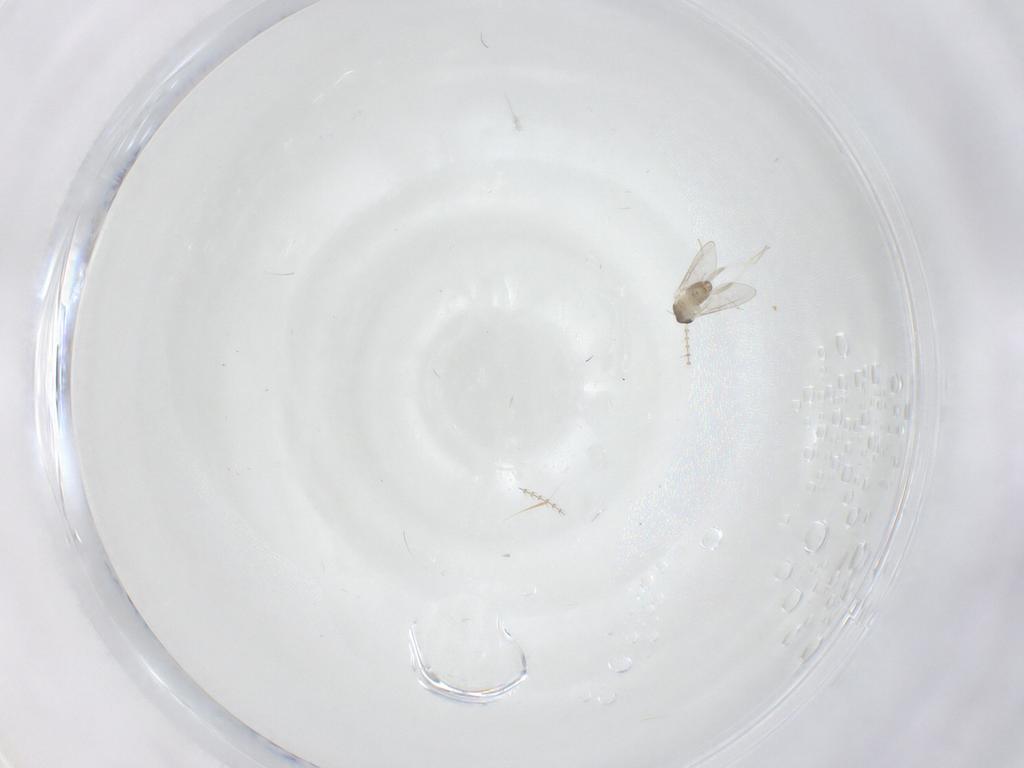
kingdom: Animalia
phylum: Arthropoda
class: Insecta
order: Diptera
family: Cecidomyiidae
